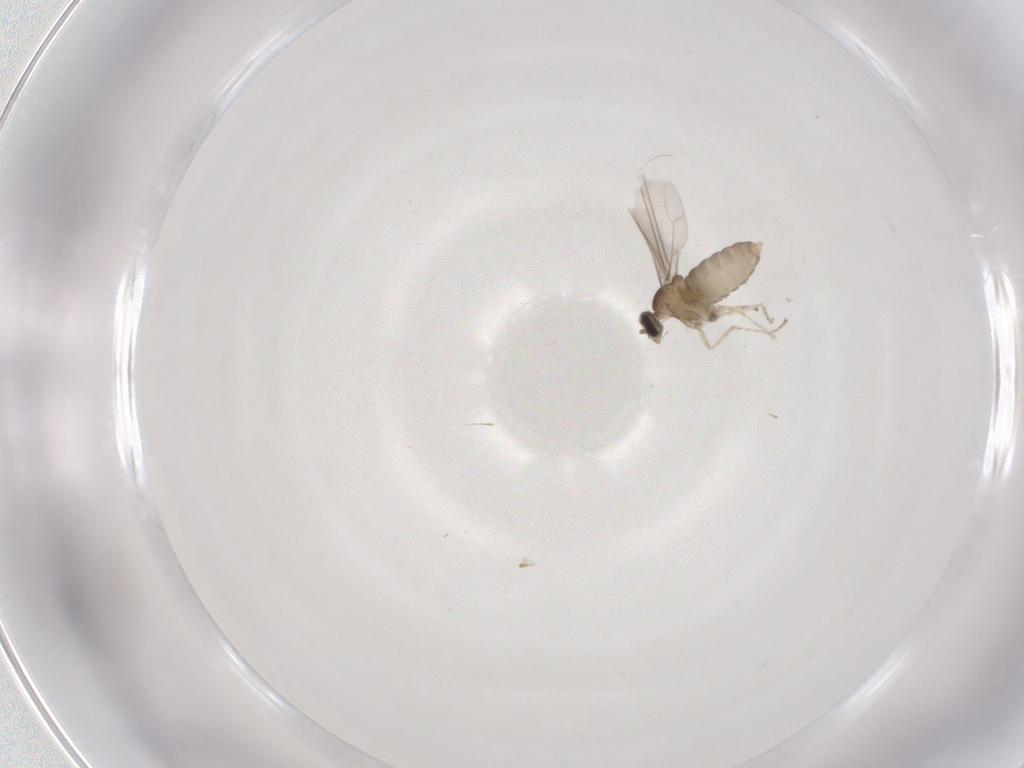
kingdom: Animalia
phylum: Arthropoda
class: Insecta
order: Diptera
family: Cecidomyiidae
